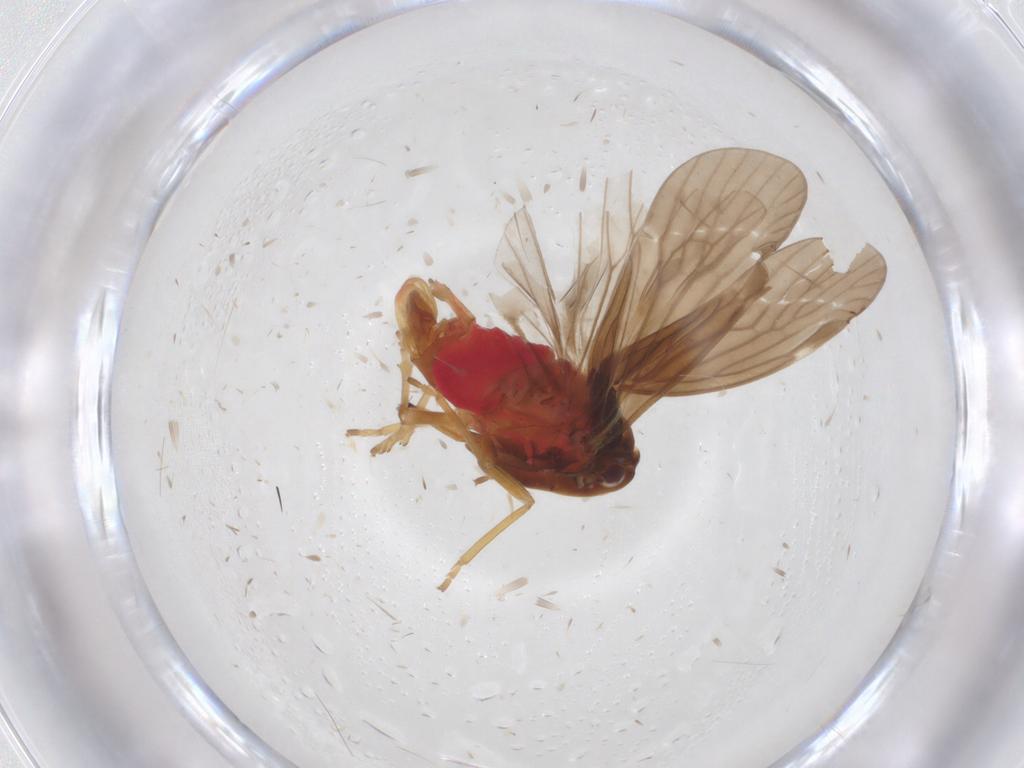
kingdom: Animalia
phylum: Arthropoda
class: Insecta
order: Hemiptera
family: Derbidae
